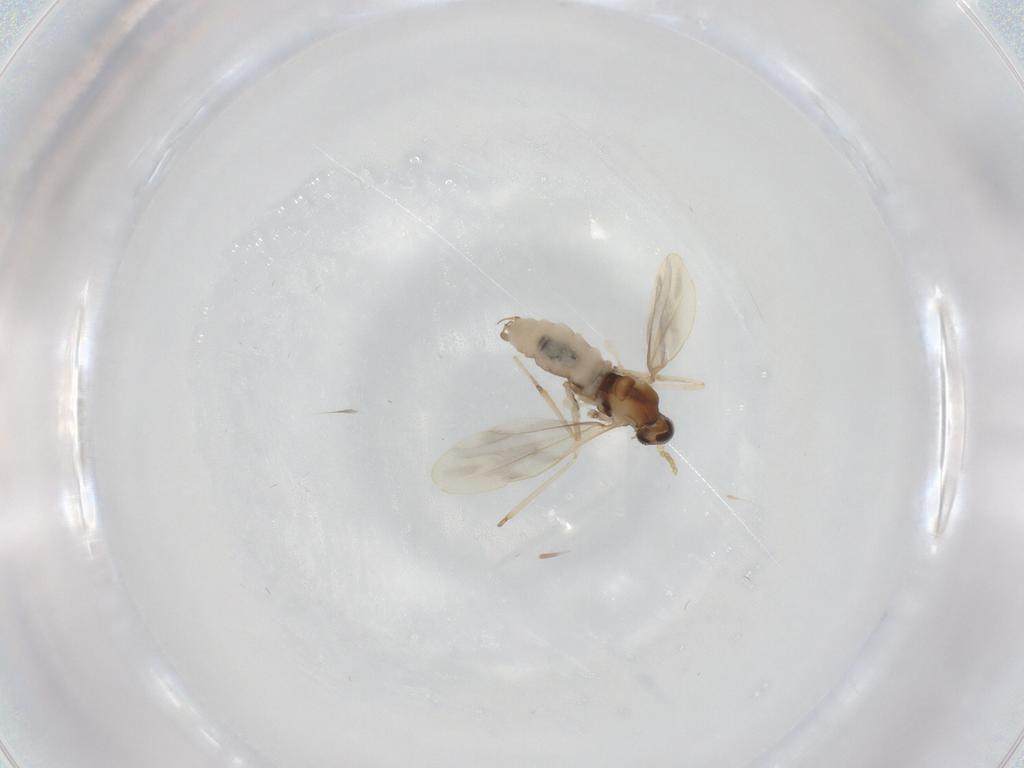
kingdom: Animalia
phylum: Arthropoda
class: Insecta
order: Diptera
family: Cecidomyiidae
